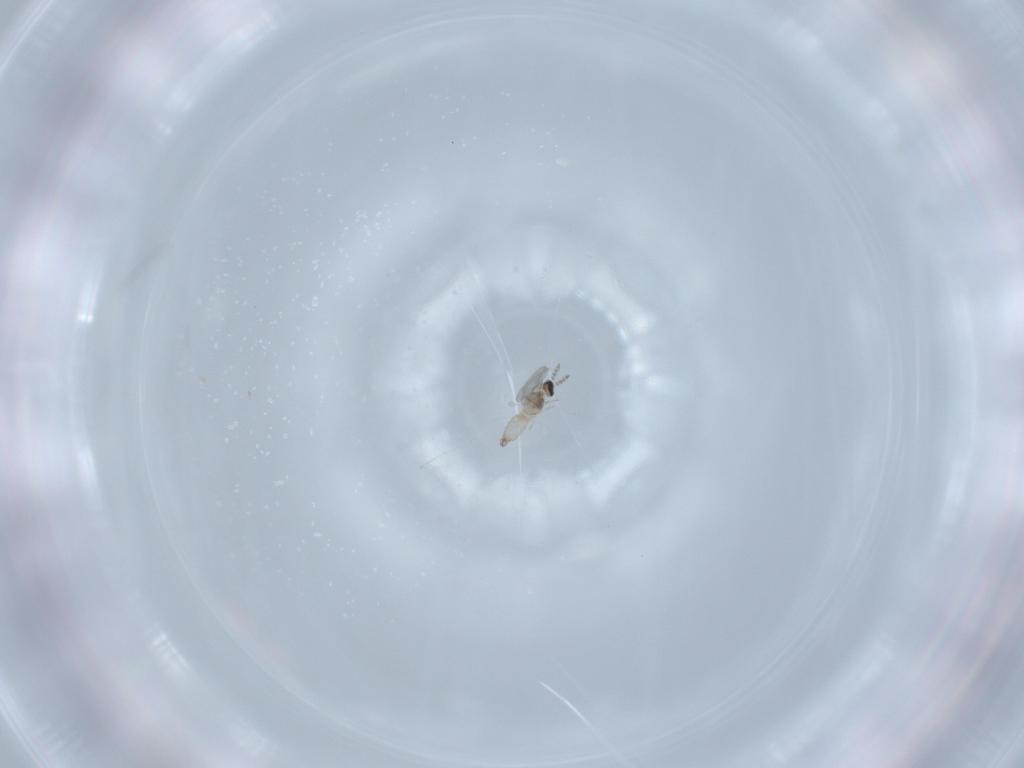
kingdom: Animalia
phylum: Arthropoda
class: Insecta
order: Diptera
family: Cecidomyiidae
